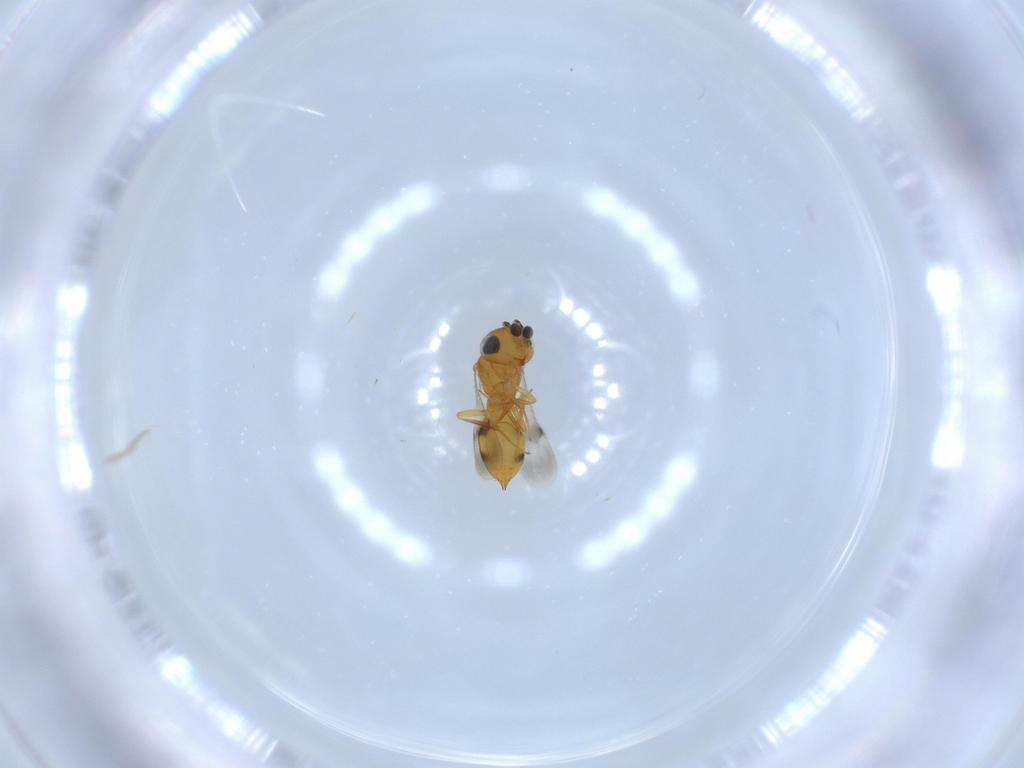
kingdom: Animalia
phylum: Arthropoda
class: Insecta
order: Hymenoptera
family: Scelionidae
